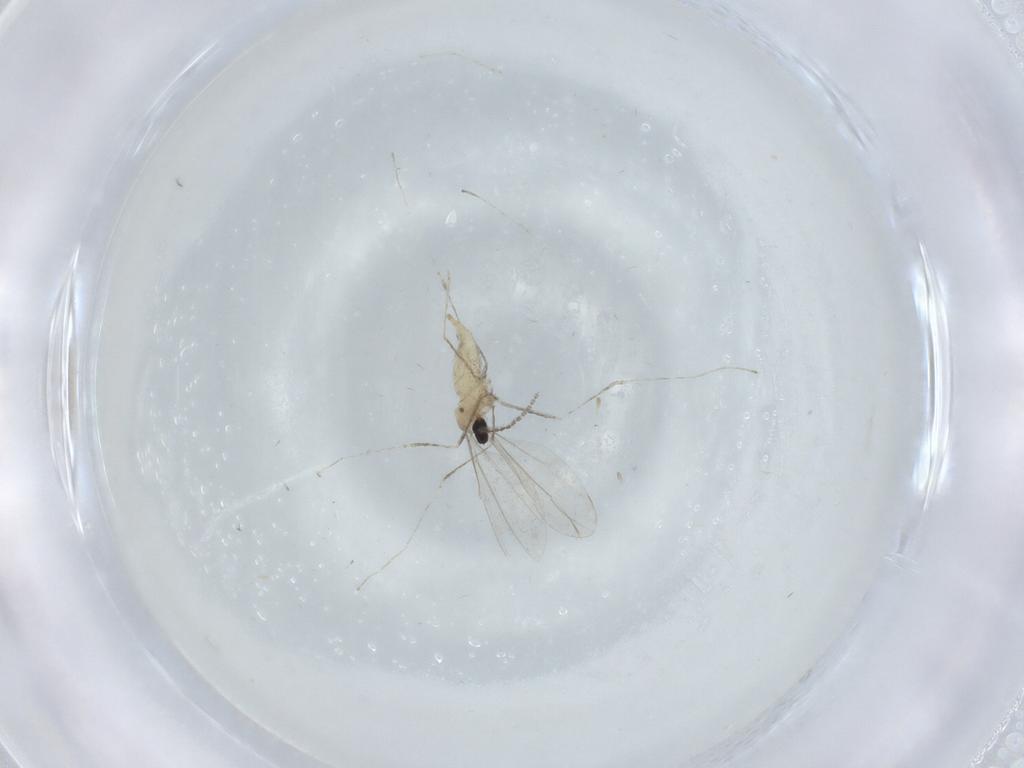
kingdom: Animalia
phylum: Arthropoda
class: Insecta
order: Diptera
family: Cecidomyiidae
